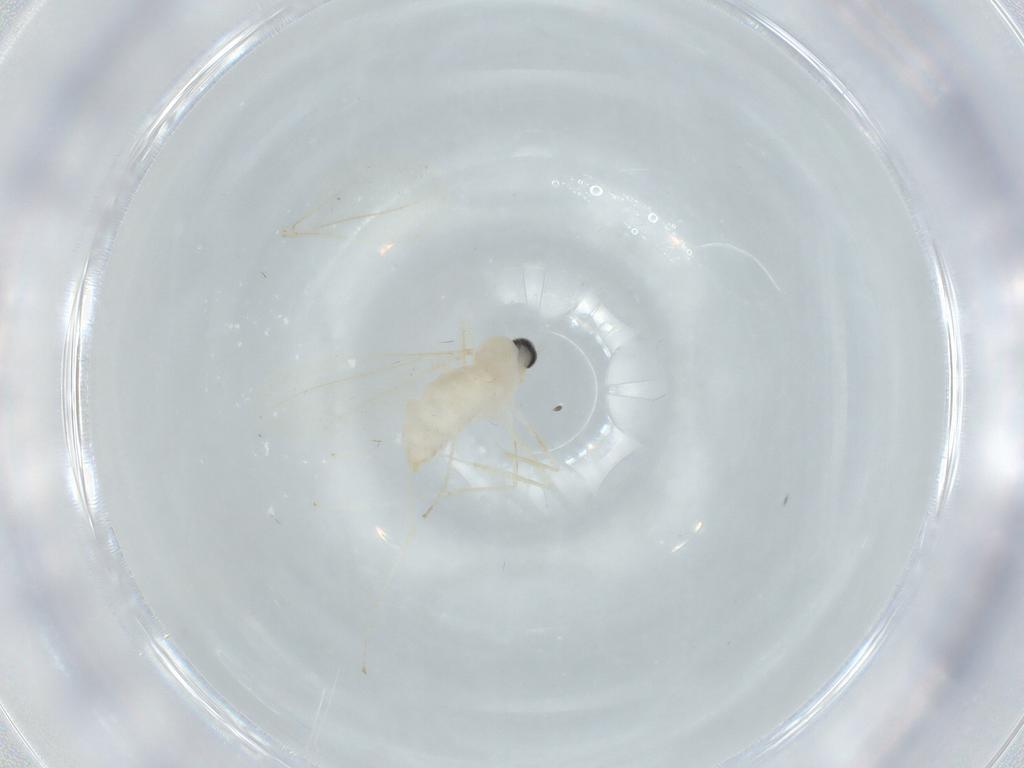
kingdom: Animalia
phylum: Arthropoda
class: Insecta
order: Diptera
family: Cecidomyiidae
